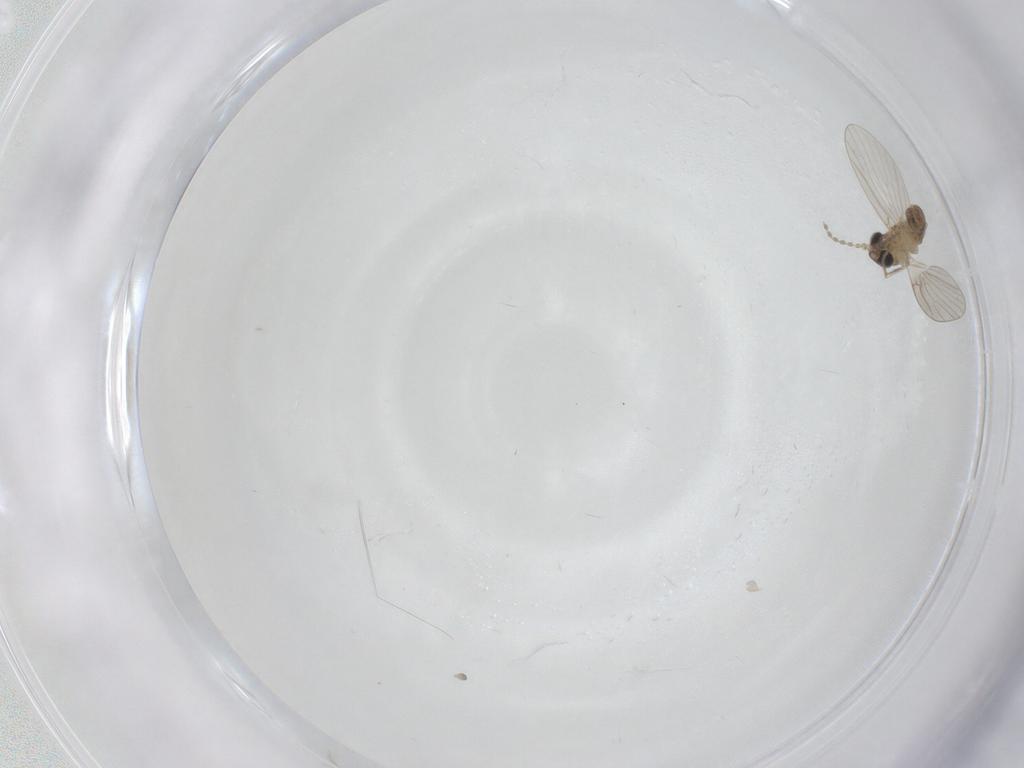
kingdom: Animalia
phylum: Arthropoda
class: Insecta
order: Diptera
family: Psychodidae
